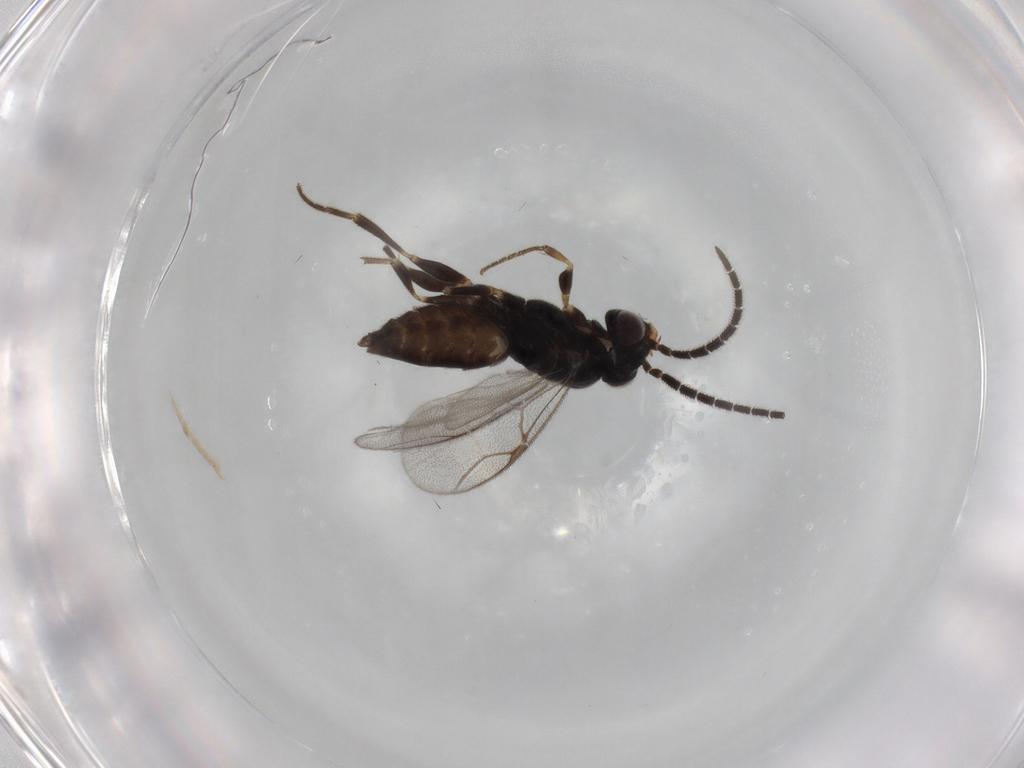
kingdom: Animalia
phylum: Arthropoda
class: Insecta
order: Hymenoptera
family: Dryinidae
